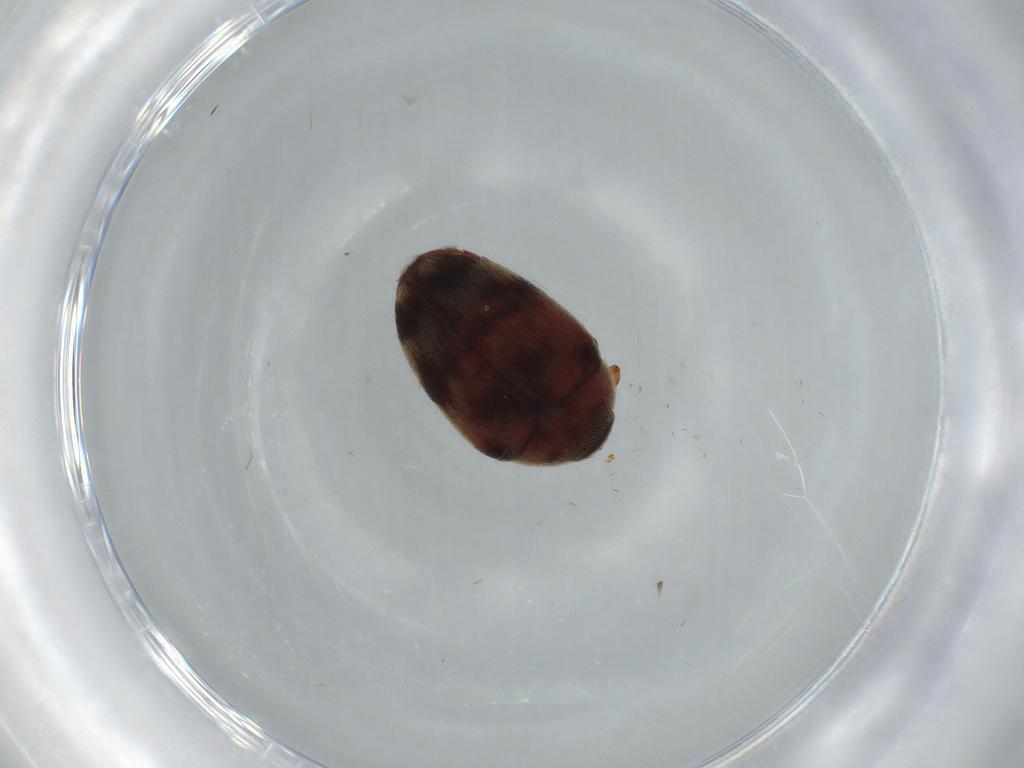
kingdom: Animalia
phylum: Arthropoda
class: Insecta
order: Coleoptera
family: Dermestidae
